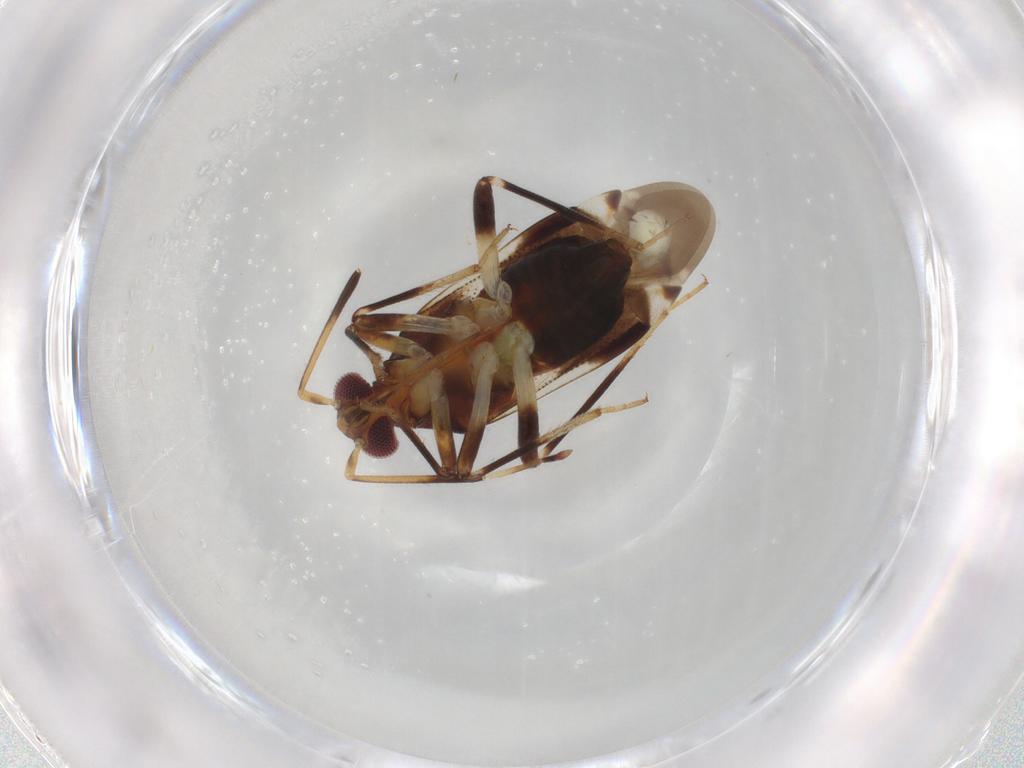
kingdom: Animalia
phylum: Arthropoda
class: Insecta
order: Hemiptera
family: Miridae
